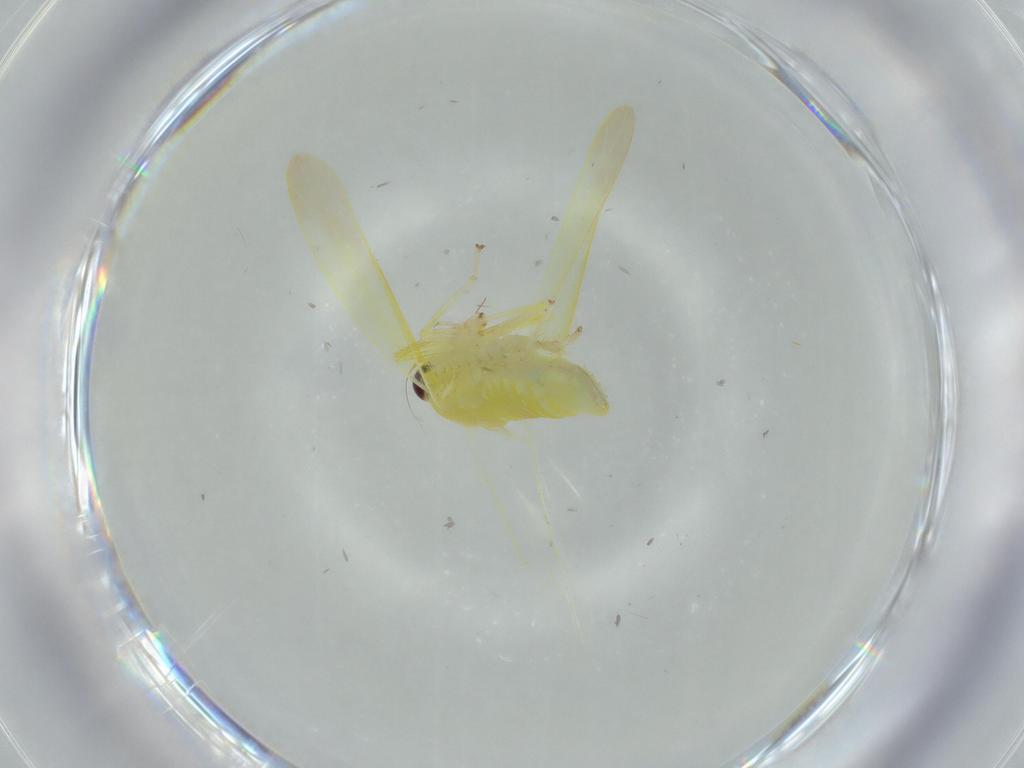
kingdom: Animalia
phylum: Arthropoda
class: Insecta
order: Hemiptera
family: Cicadellidae
